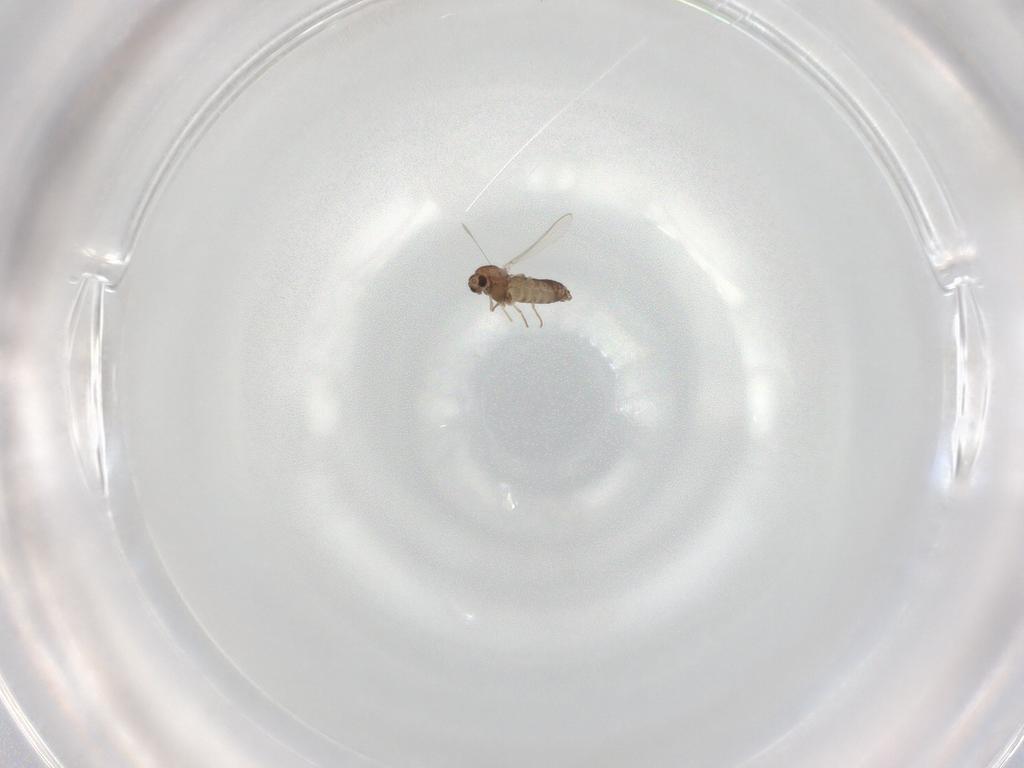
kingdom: Animalia
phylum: Arthropoda
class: Insecta
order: Diptera
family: Chironomidae
